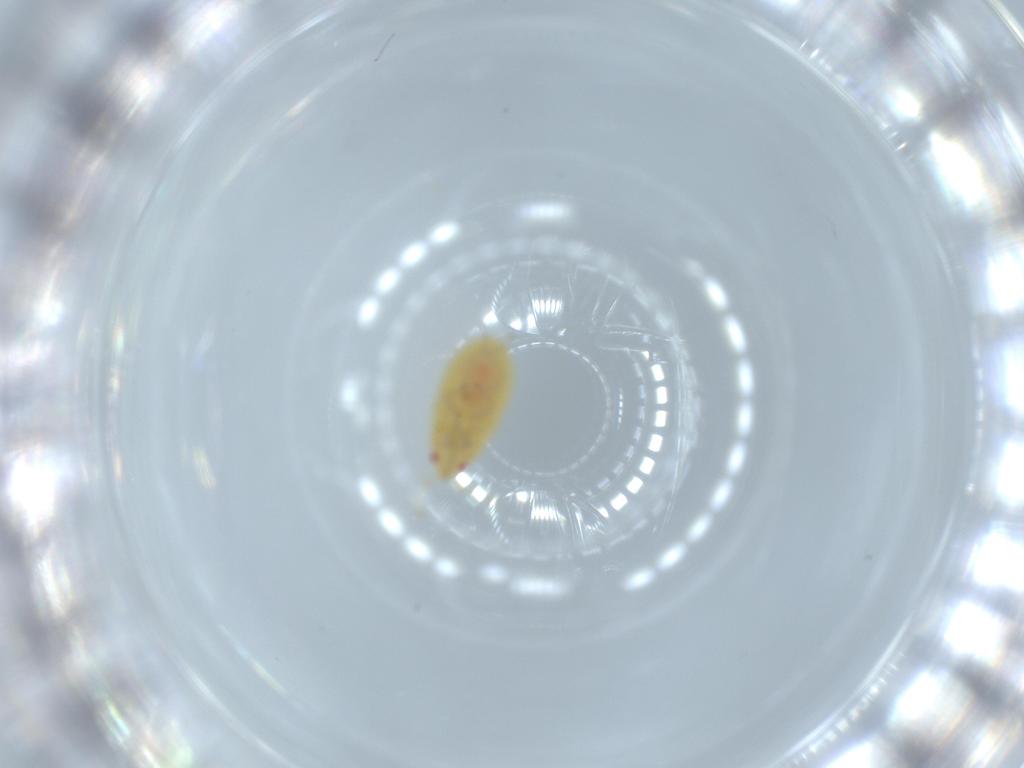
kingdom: Animalia
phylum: Arthropoda
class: Insecta
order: Hemiptera
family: Anthocoridae
